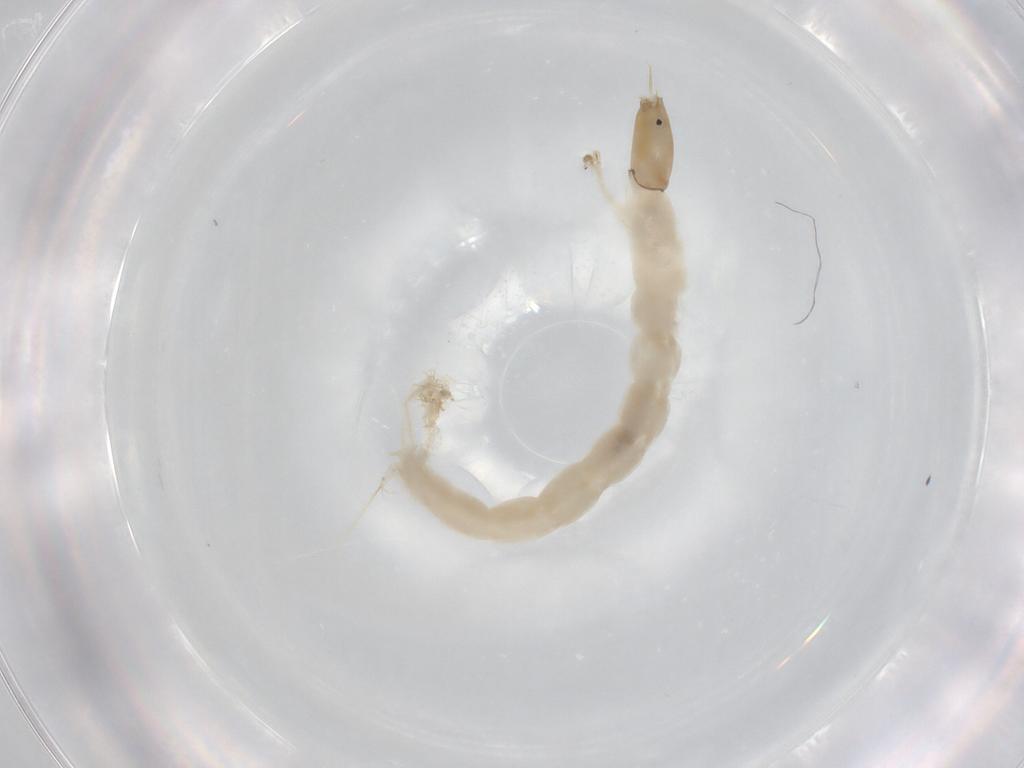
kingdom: Animalia
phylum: Arthropoda
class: Insecta
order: Diptera
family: Chironomidae
